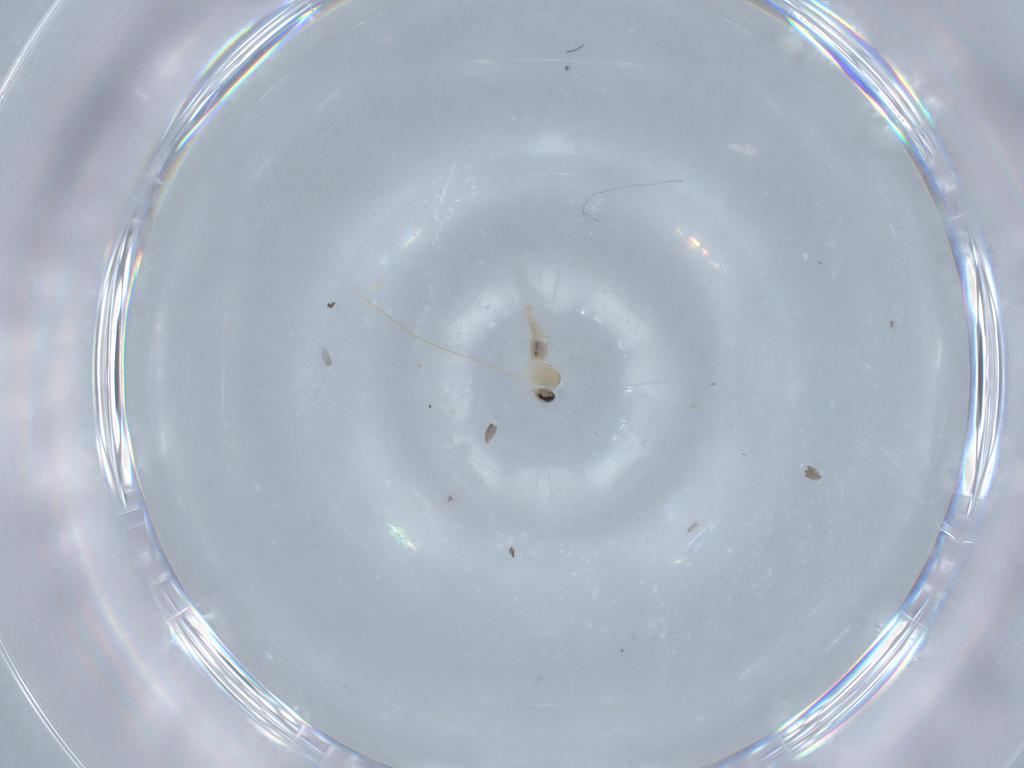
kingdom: Animalia
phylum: Arthropoda
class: Insecta
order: Diptera
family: Cecidomyiidae
